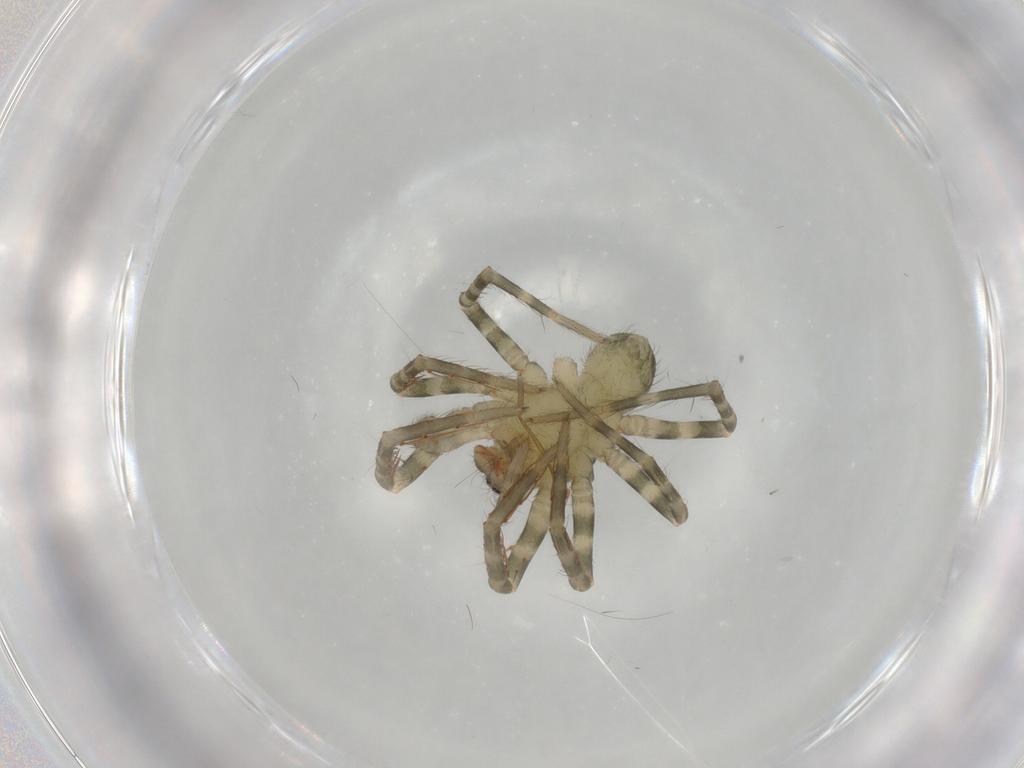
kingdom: Animalia
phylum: Arthropoda
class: Arachnida
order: Araneae
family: Ctenidae
